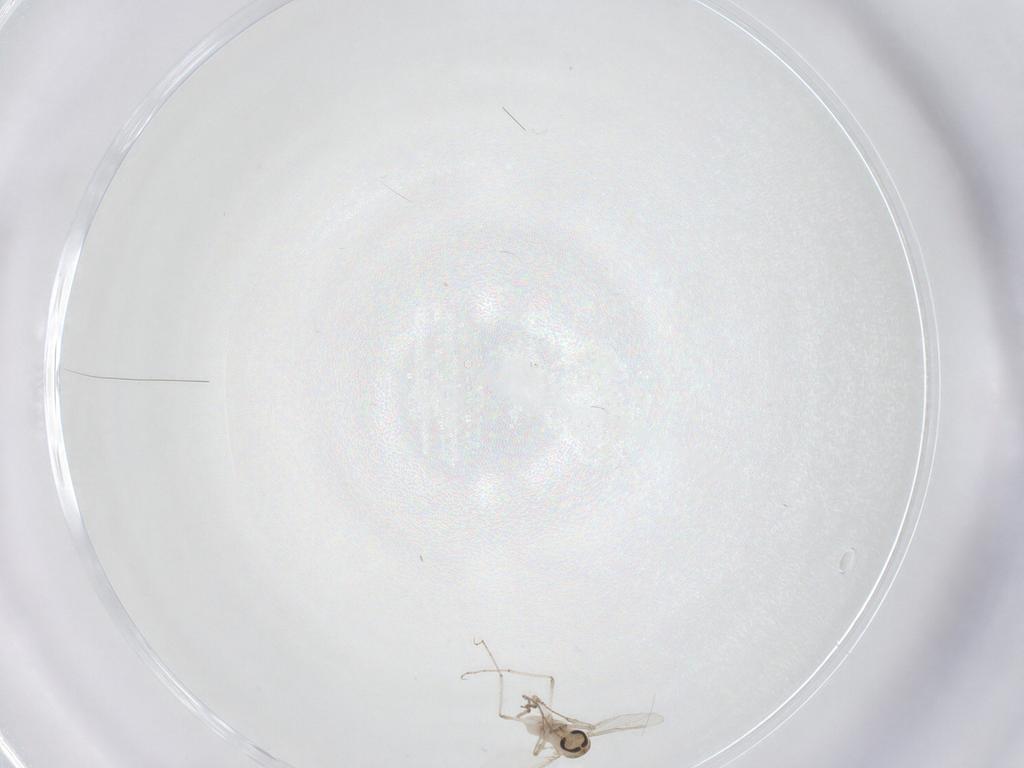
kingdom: Animalia
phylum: Arthropoda
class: Insecta
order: Diptera
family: Chironomidae
